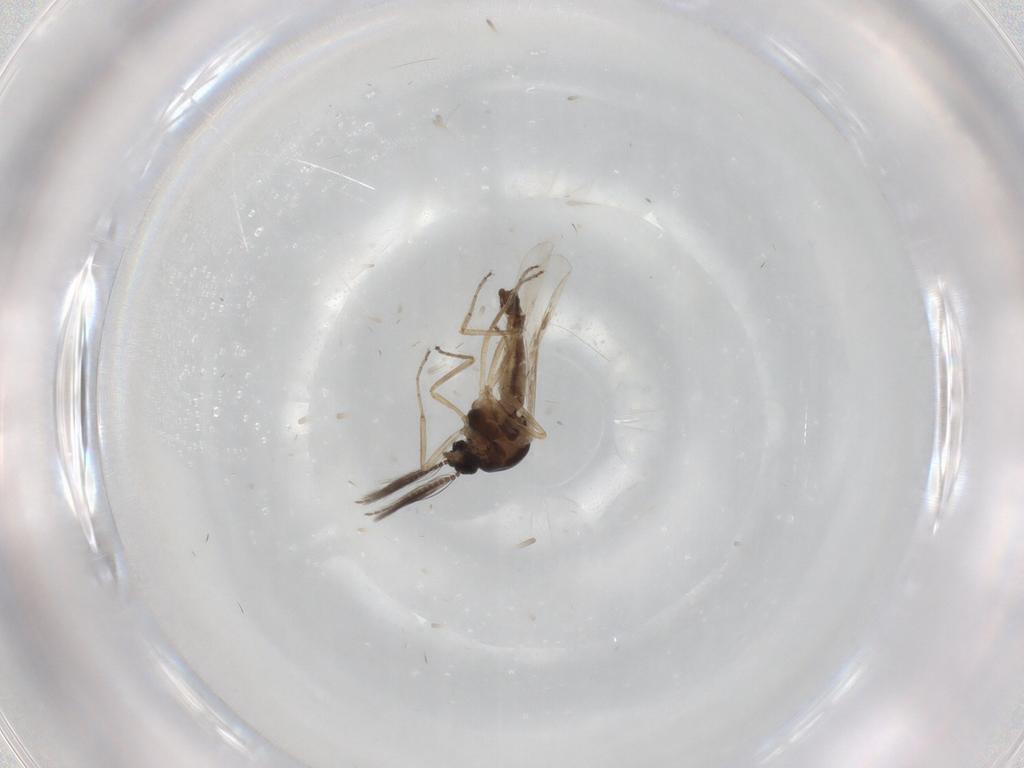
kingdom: Animalia
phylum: Arthropoda
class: Insecta
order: Diptera
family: Ceratopogonidae
